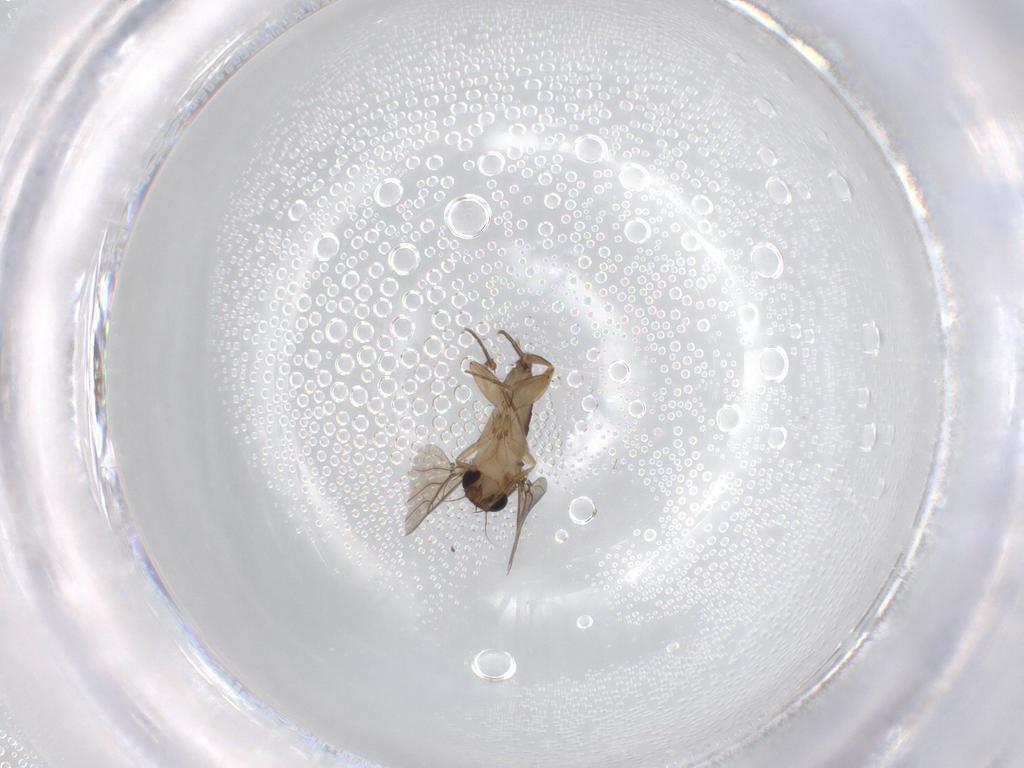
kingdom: Animalia
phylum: Arthropoda
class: Insecta
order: Diptera
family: Phoridae
